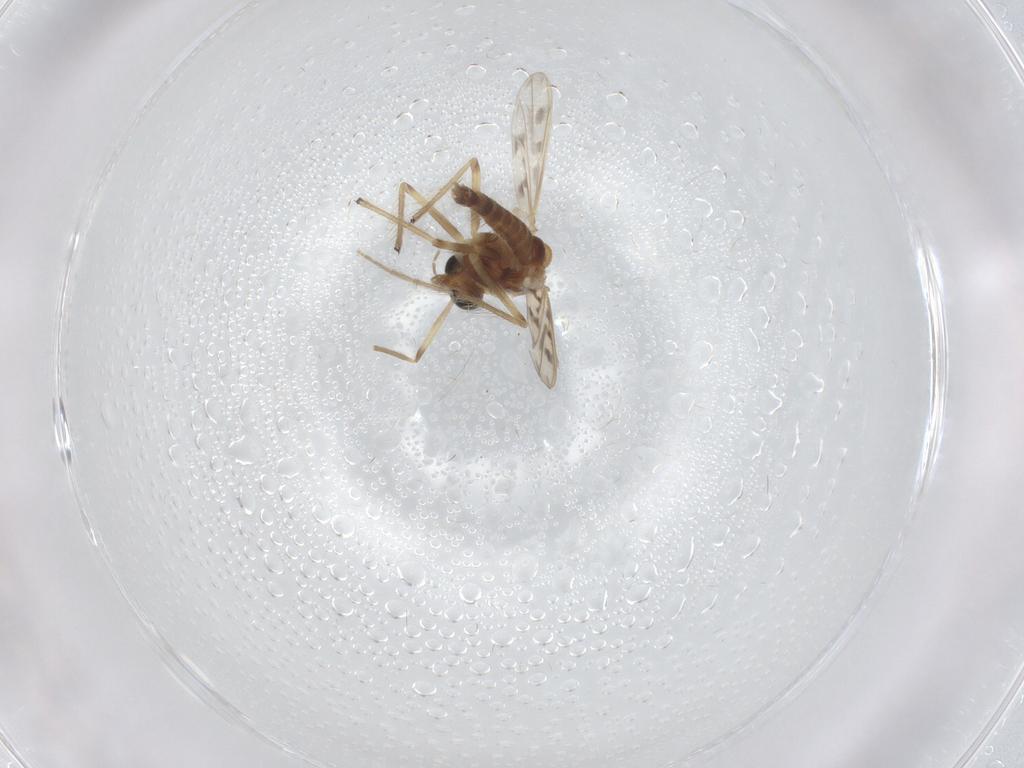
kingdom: Animalia
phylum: Arthropoda
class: Insecta
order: Diptera
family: Chironomidae
